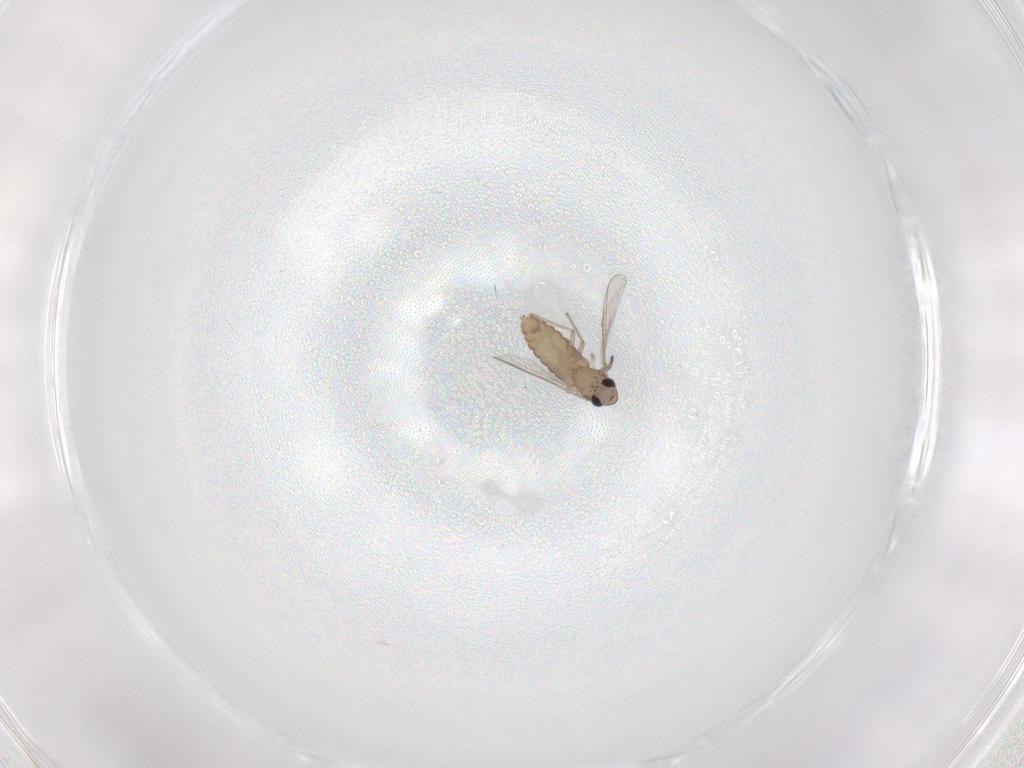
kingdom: Animalia
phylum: Arthropoda
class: Insecta
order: Diptera
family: Chironomidae
